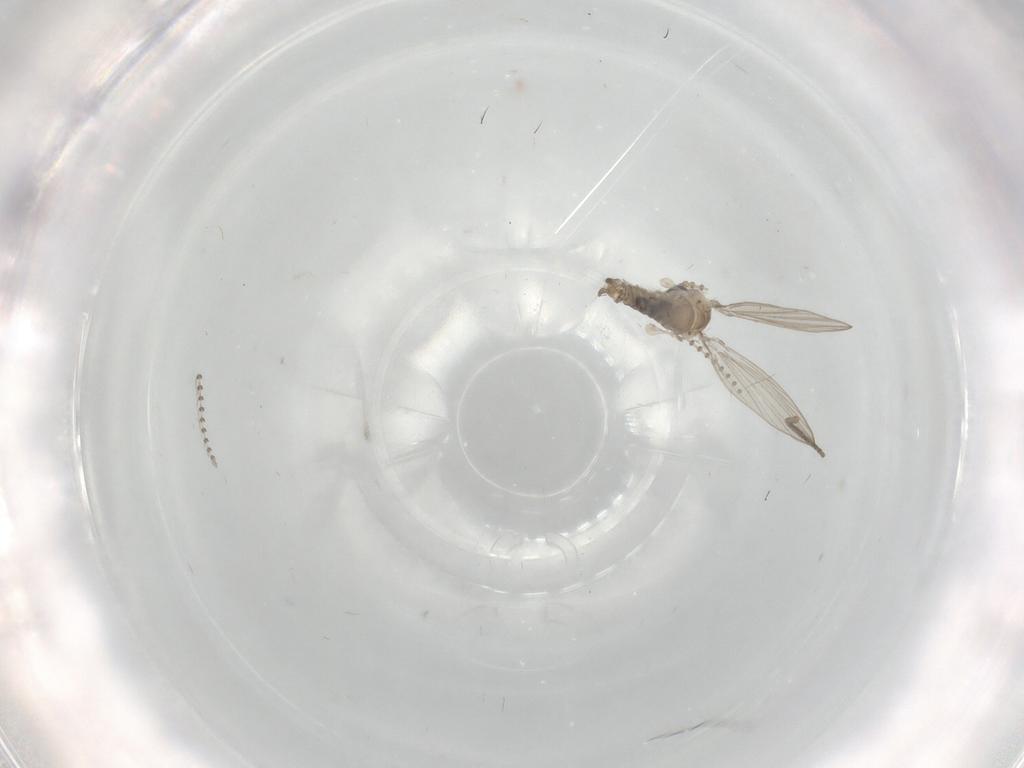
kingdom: Animalia
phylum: Arthropoda
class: Insecta
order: Diptera
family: Psychodidae
